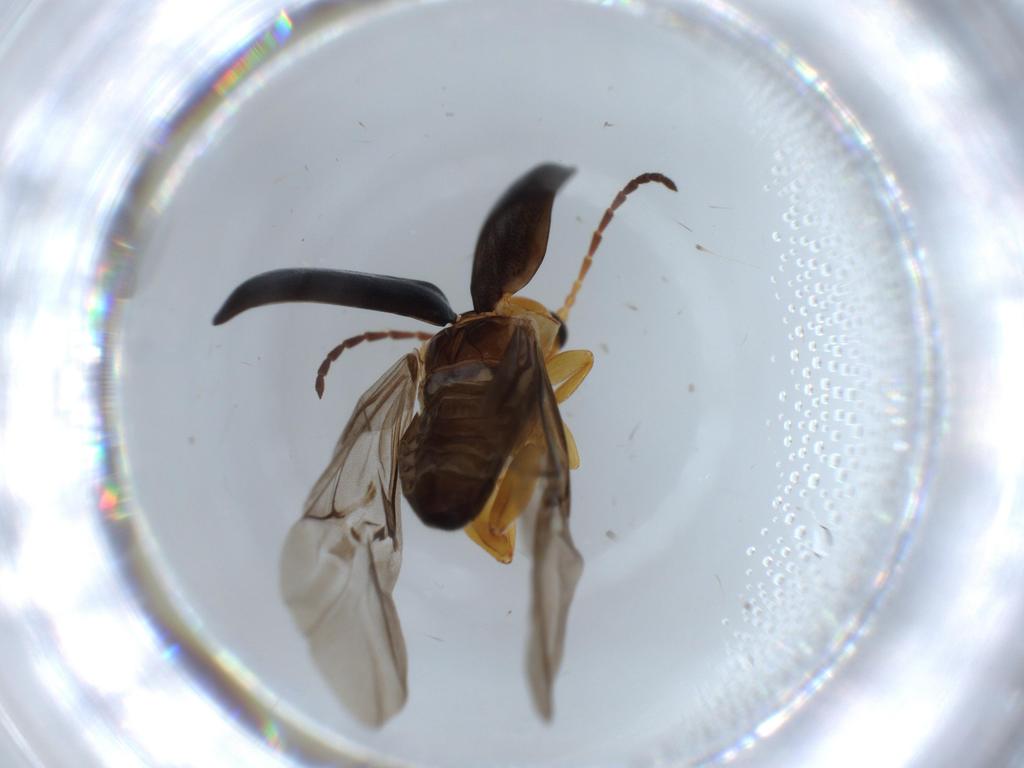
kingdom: Animalia
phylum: Arthropoda
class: Insecta
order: Coleoptera
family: Chrysomelidae
